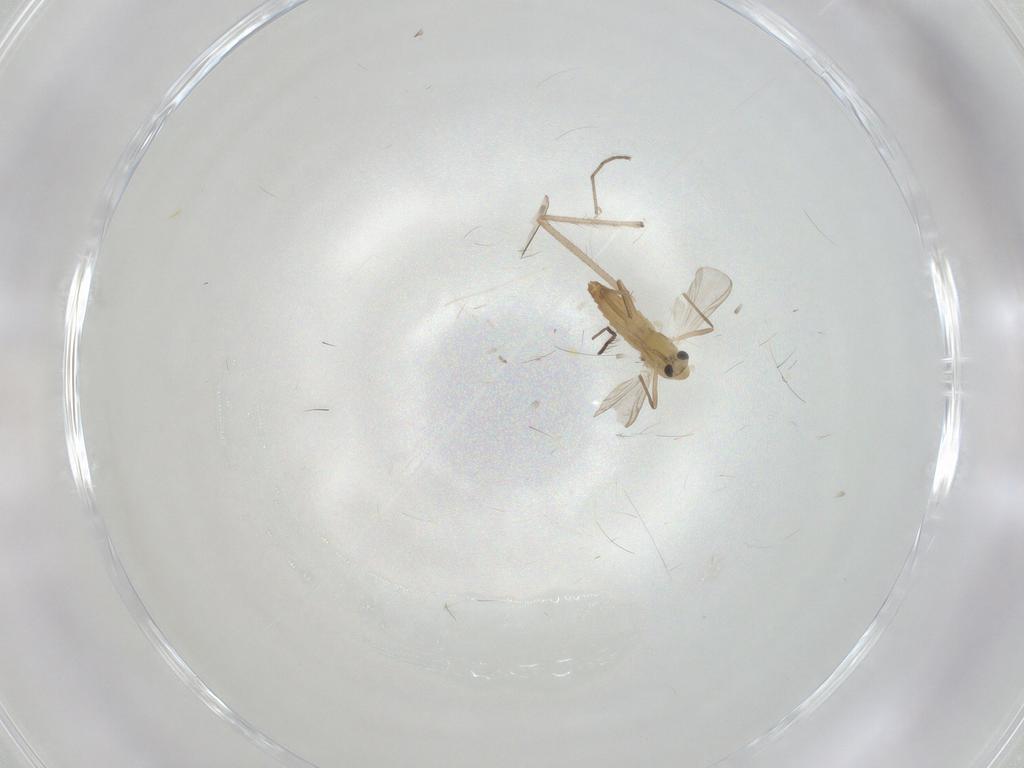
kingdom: Animalia
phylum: Arthropoda
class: Insecta
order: Diptera
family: Chironomidae
